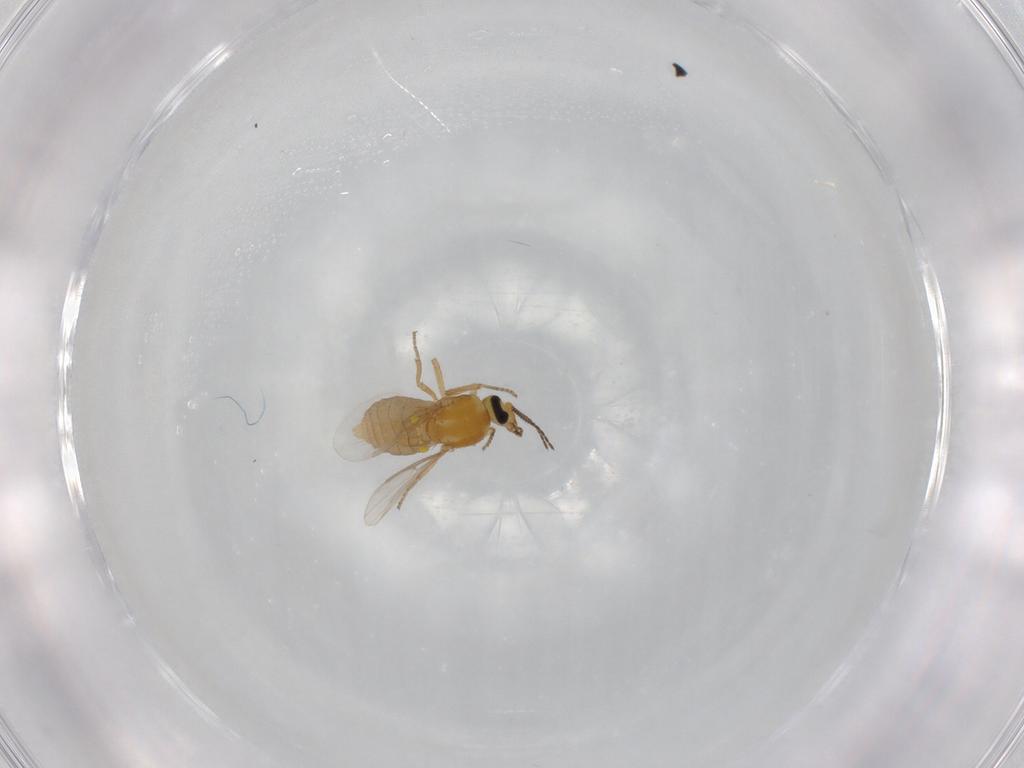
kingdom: Animalia
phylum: Arthropoda
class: Insecta
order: Diptera
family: Ceratopogonidae
